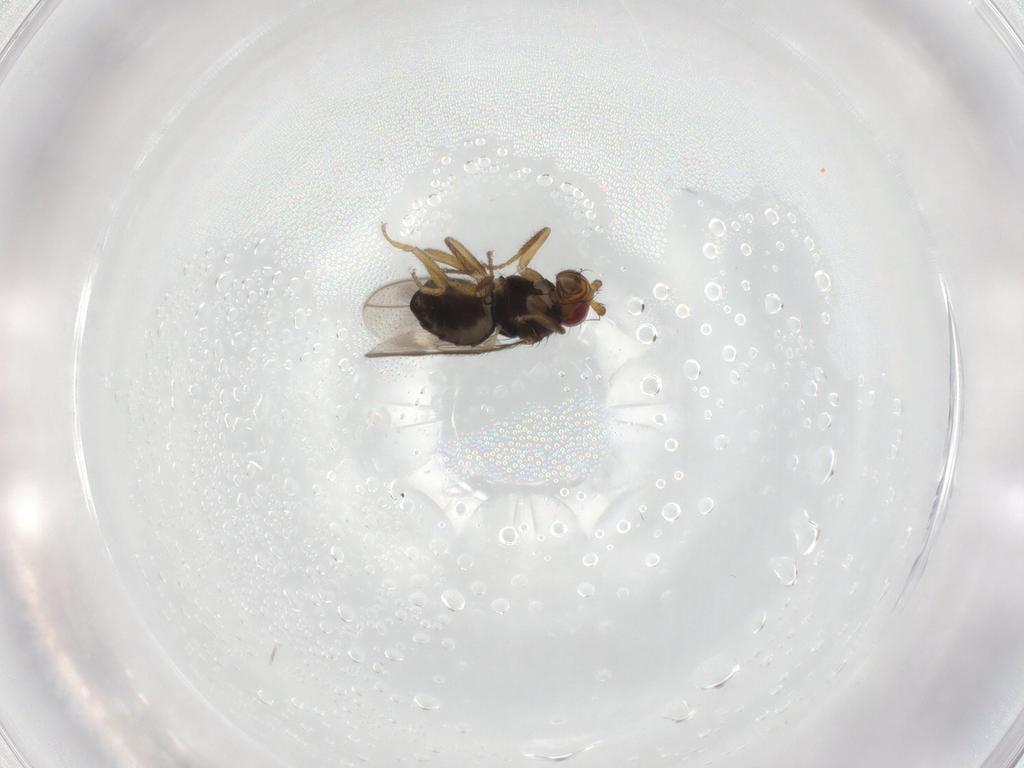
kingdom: Animalia
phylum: Arthropoda
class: Insecta
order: Diptera
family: Sphaeroceridae
